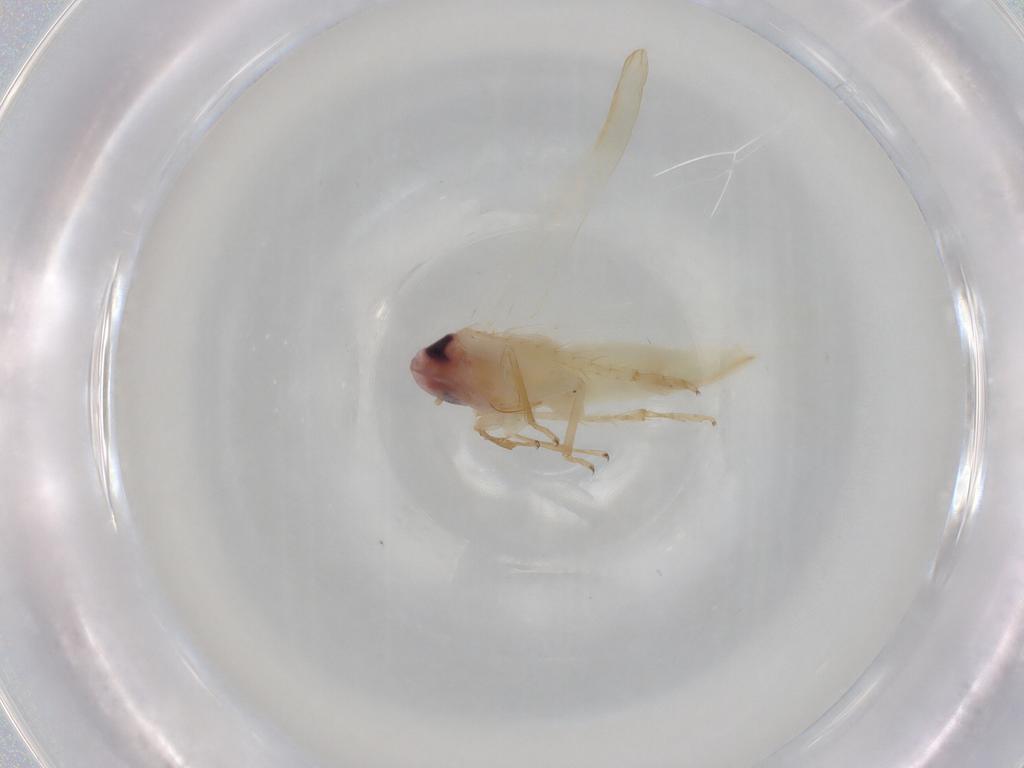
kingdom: Animalia
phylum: Arthropoda
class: Insecta
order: Hemiptera
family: Cicadellidae
